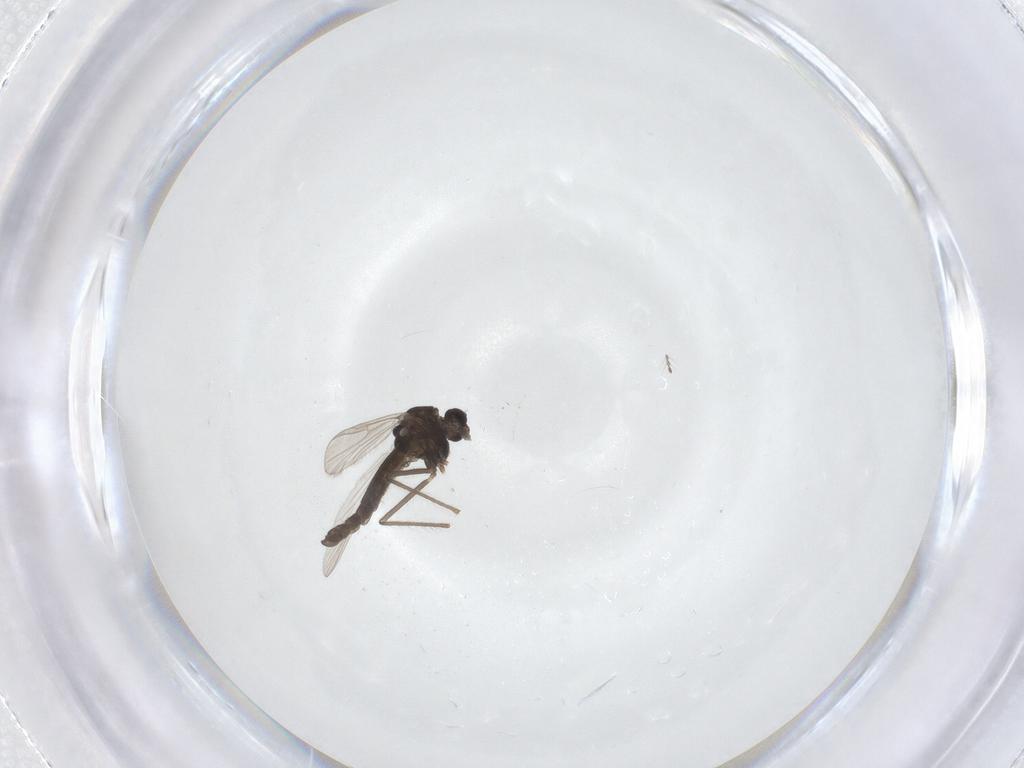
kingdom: Animalia
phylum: Arthropoda
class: Insecta
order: Diptera
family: Chironomidae
